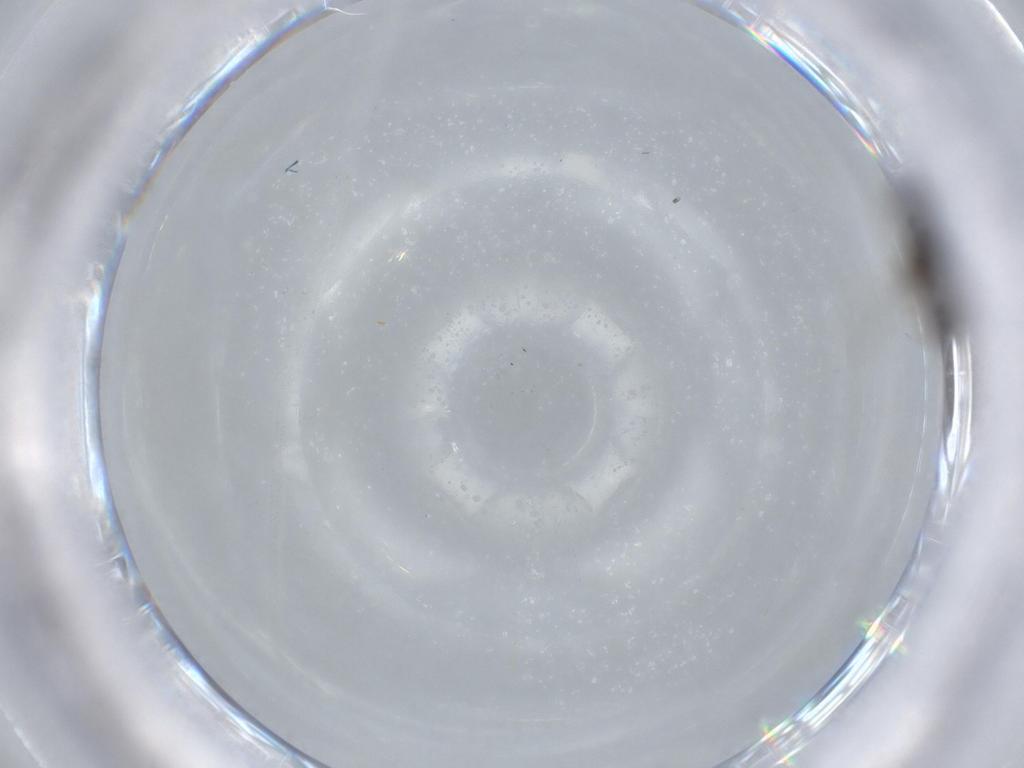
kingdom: Animalia
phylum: Arthropoda
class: Insecta
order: Hymenoptera
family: Bethylidae
